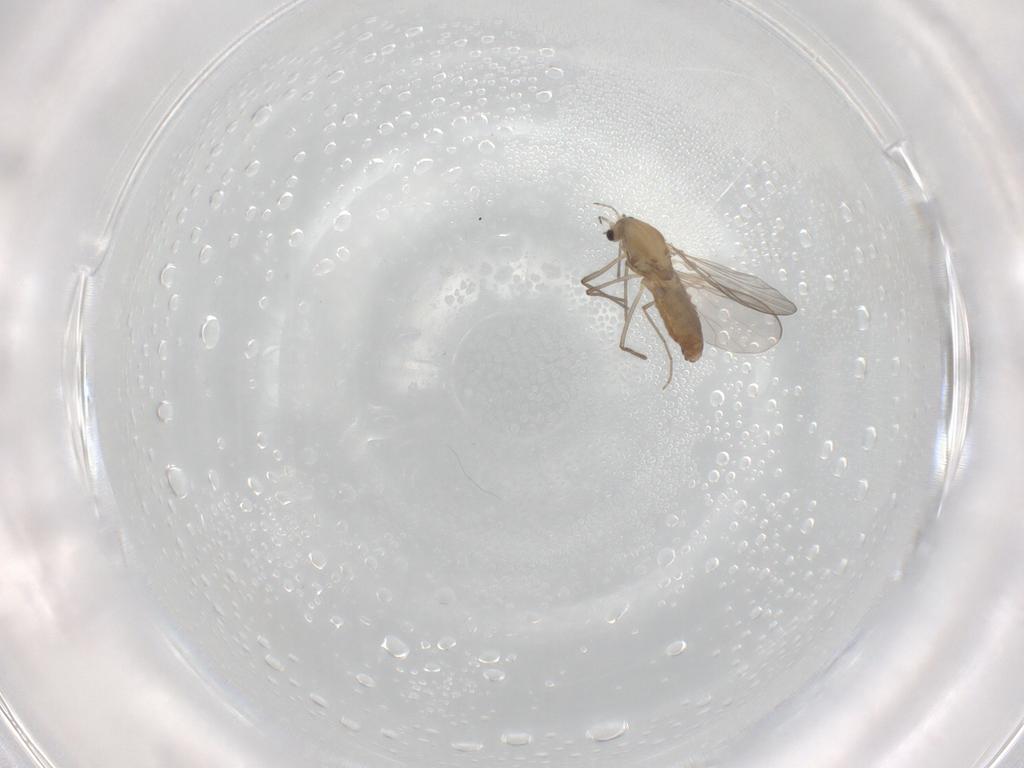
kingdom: Animalia
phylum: Arthropoda
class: Insecta
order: Diptera
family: Chironomidae
